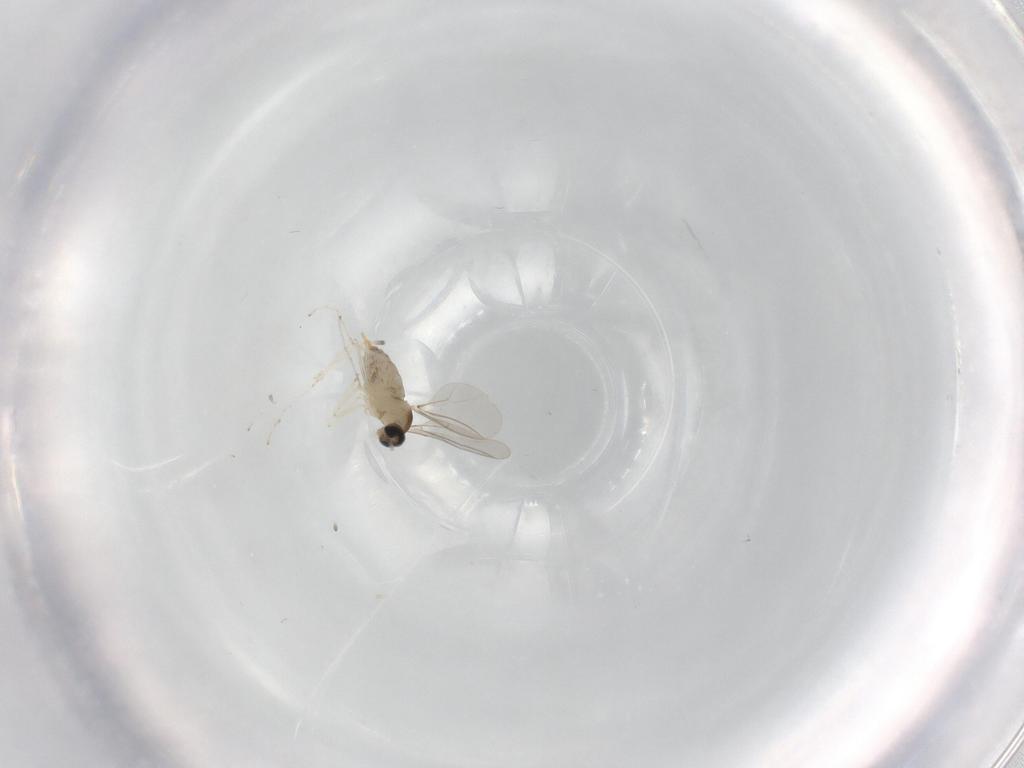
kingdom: Animalia
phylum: Arthropoda
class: Insecta
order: Diptera
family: Cecidomyiidae
